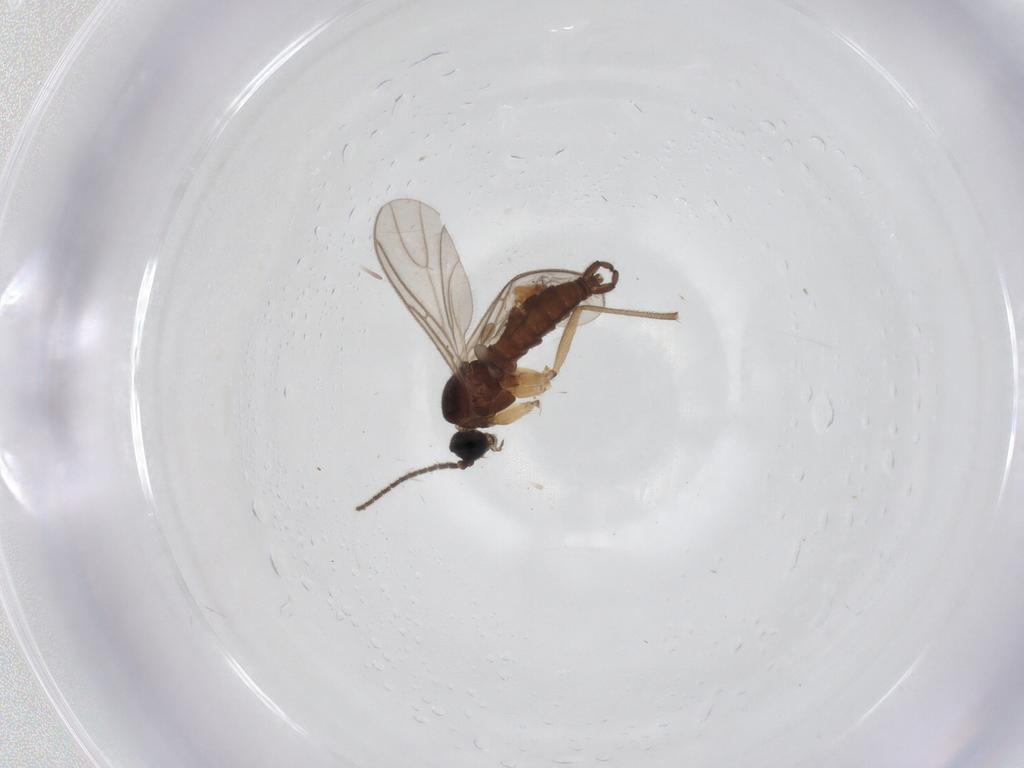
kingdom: Animalia
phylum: Arthropoda
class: Insecta
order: Diptera
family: Sciaridae
